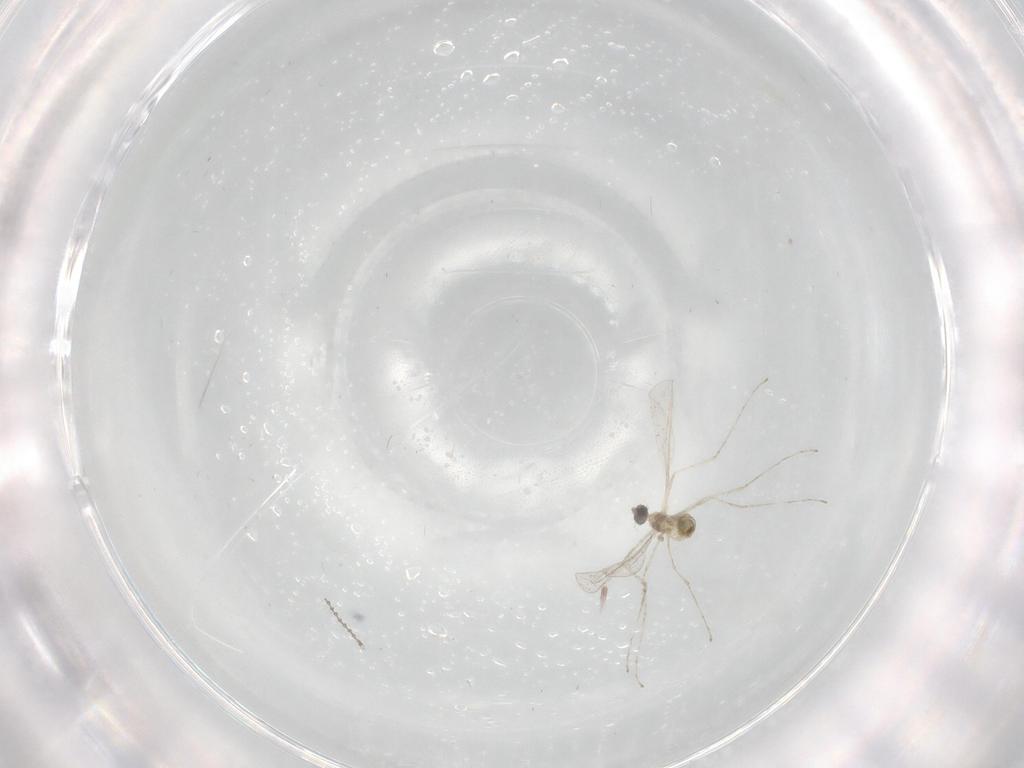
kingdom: Animalia
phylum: Arthropoda
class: Insecta
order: Diptera
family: Cecidomyiidae
